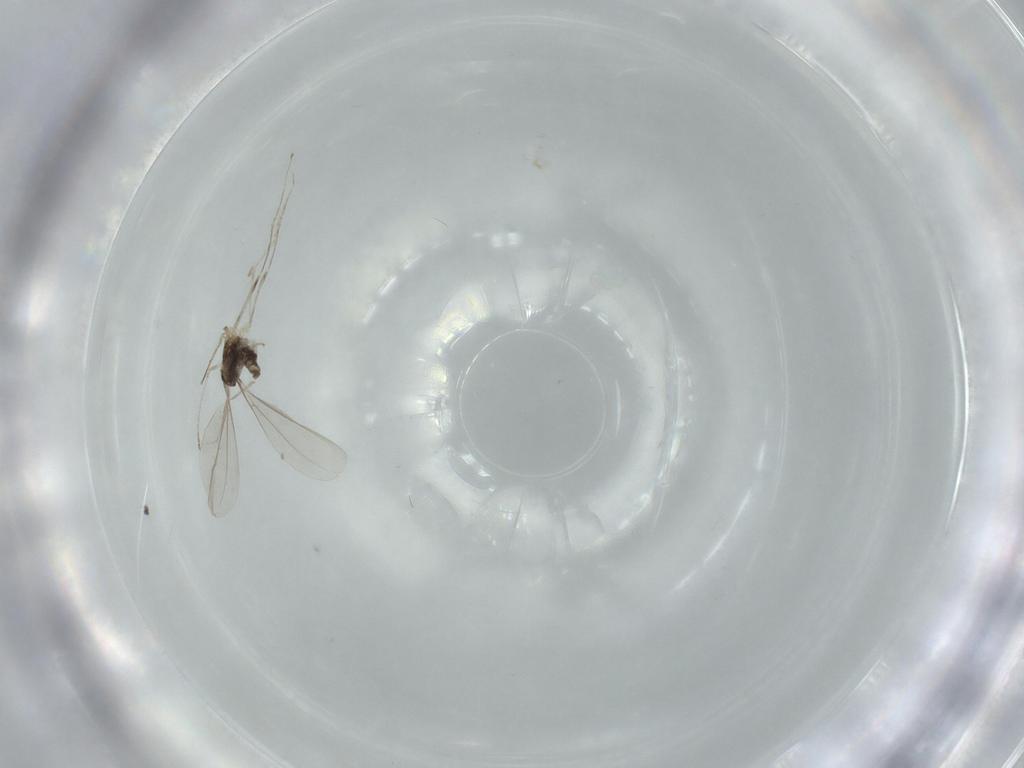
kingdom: Animalia
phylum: Arthropoda
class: Insecta
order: Diptera
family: Cecidomyiidae
